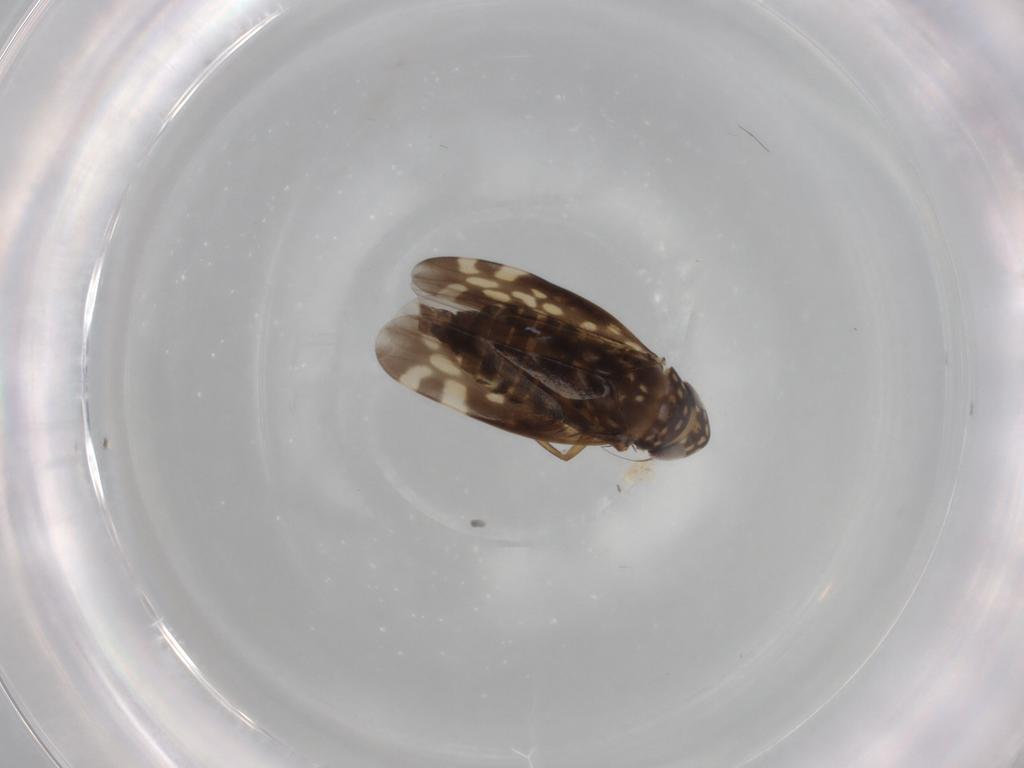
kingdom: Animalia
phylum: Arthropoda
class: Insecta
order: Hemiptera
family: Cicadellidae
